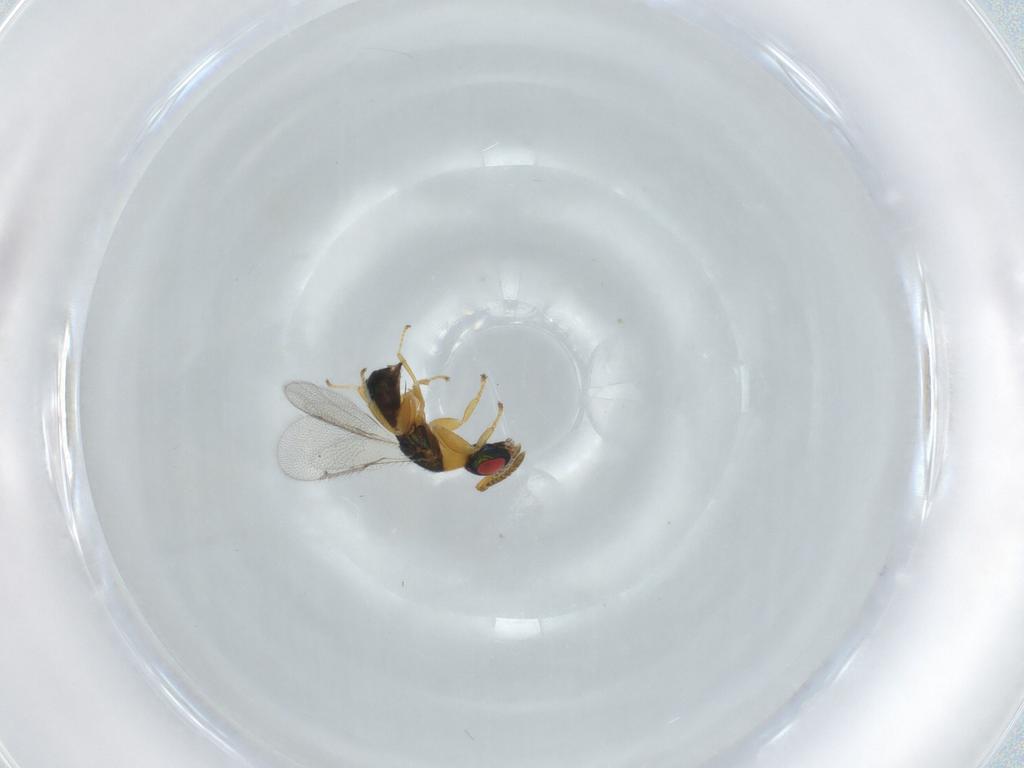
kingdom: Animalia
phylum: Arthropoda
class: Insecta
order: Hymenoptera
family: Torymidae
